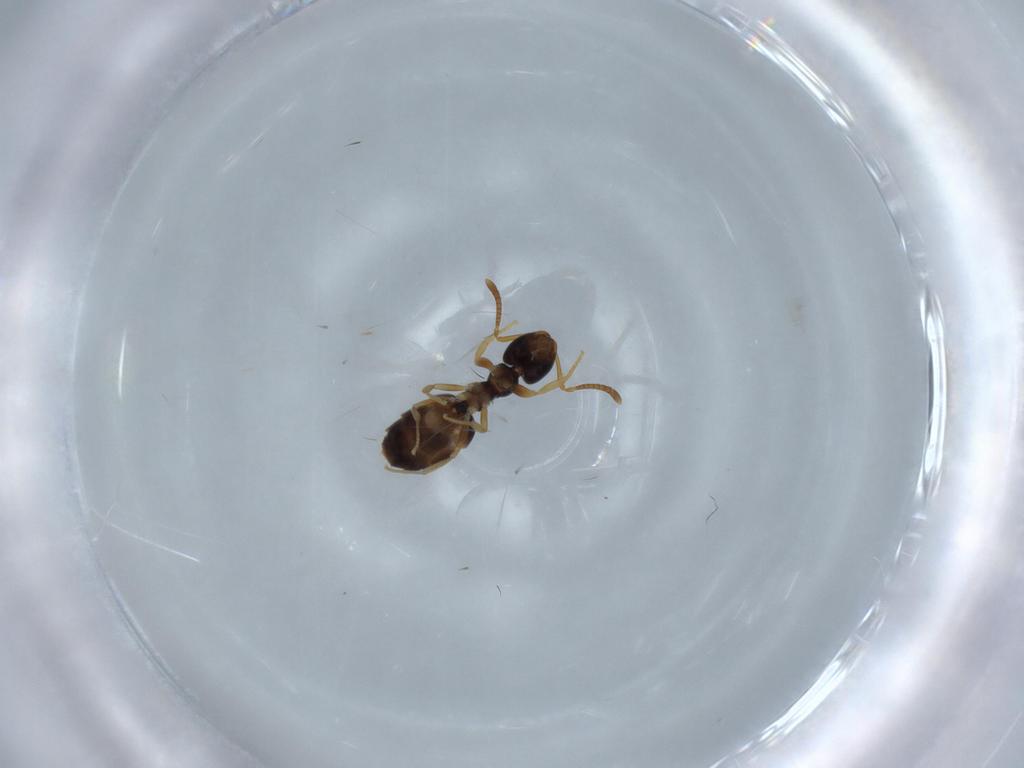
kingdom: Animalia
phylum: Arthropoda
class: Insecta
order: Hymenoptera
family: Formicidae
